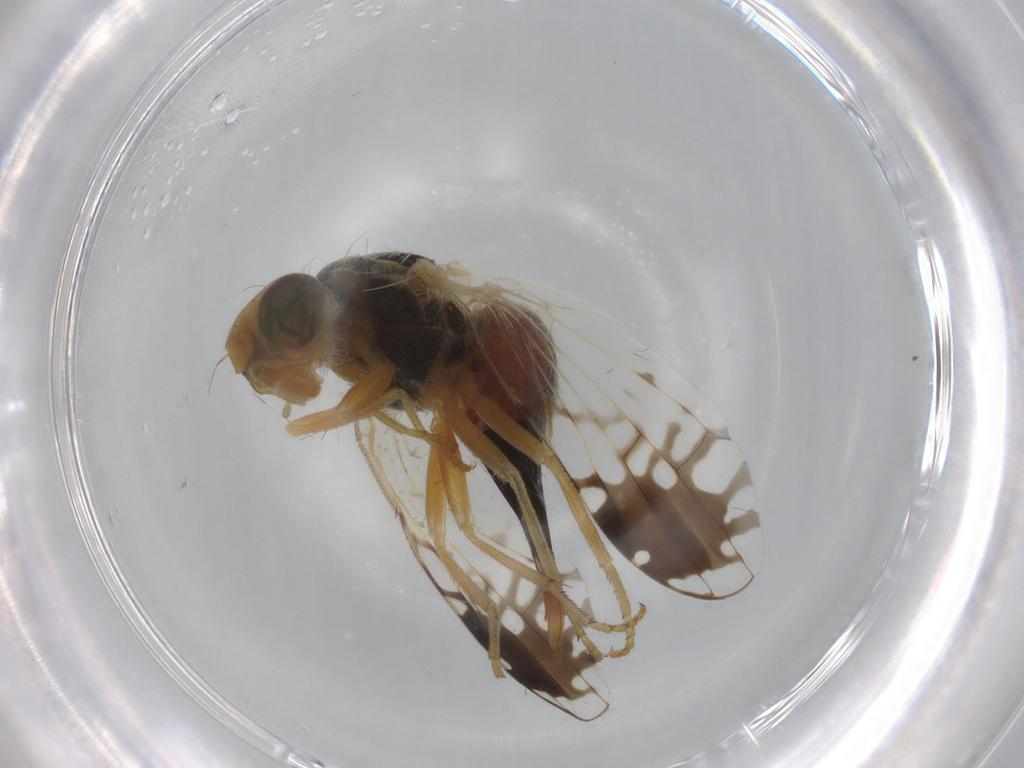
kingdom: Animalia
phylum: Arthropoda
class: Insecta
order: Diptera
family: Tephritidae
